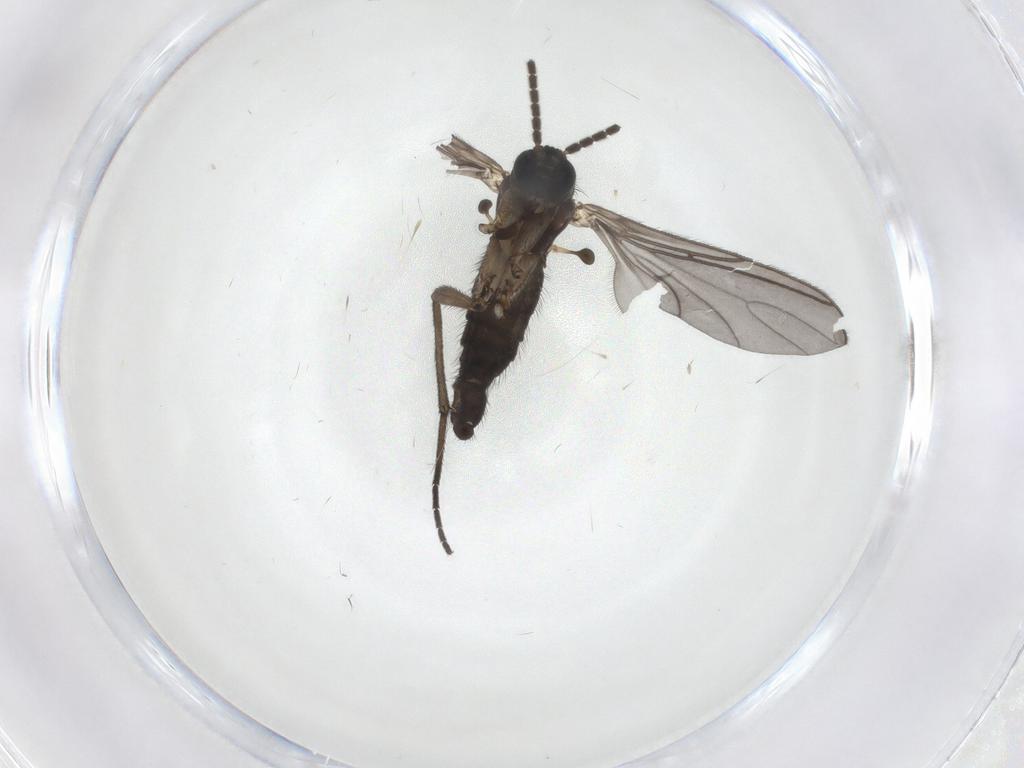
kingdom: Animalia
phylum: Arthropoda
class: Insecta
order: Diptera
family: Sciaridae
